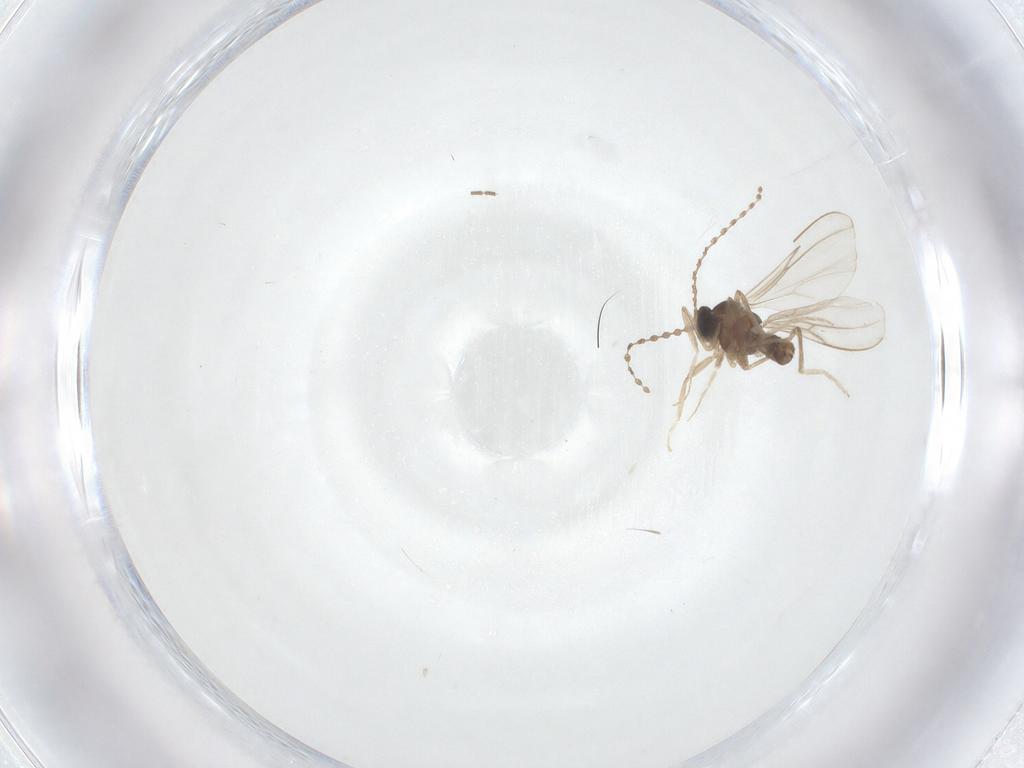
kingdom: Animalia
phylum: Arthropoda
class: Insecta
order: Diptera
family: Cecidomyiidae
